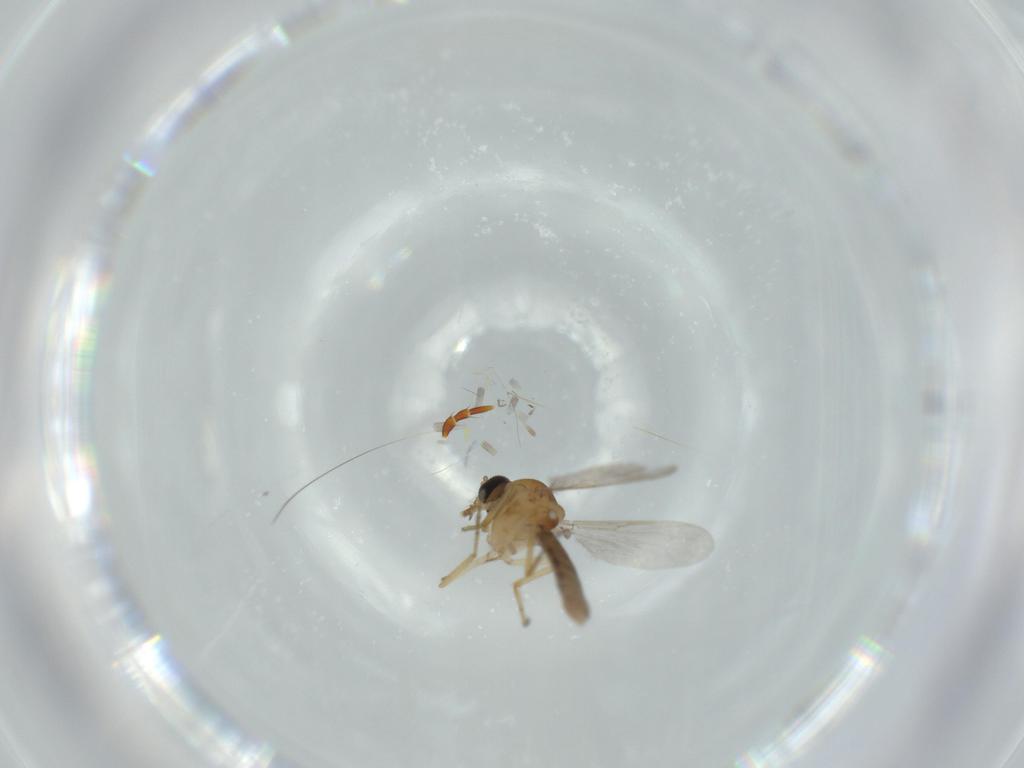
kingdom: Animalia
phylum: Arthropoda
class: Insecta
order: Diptera
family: Ceratopogonidae
